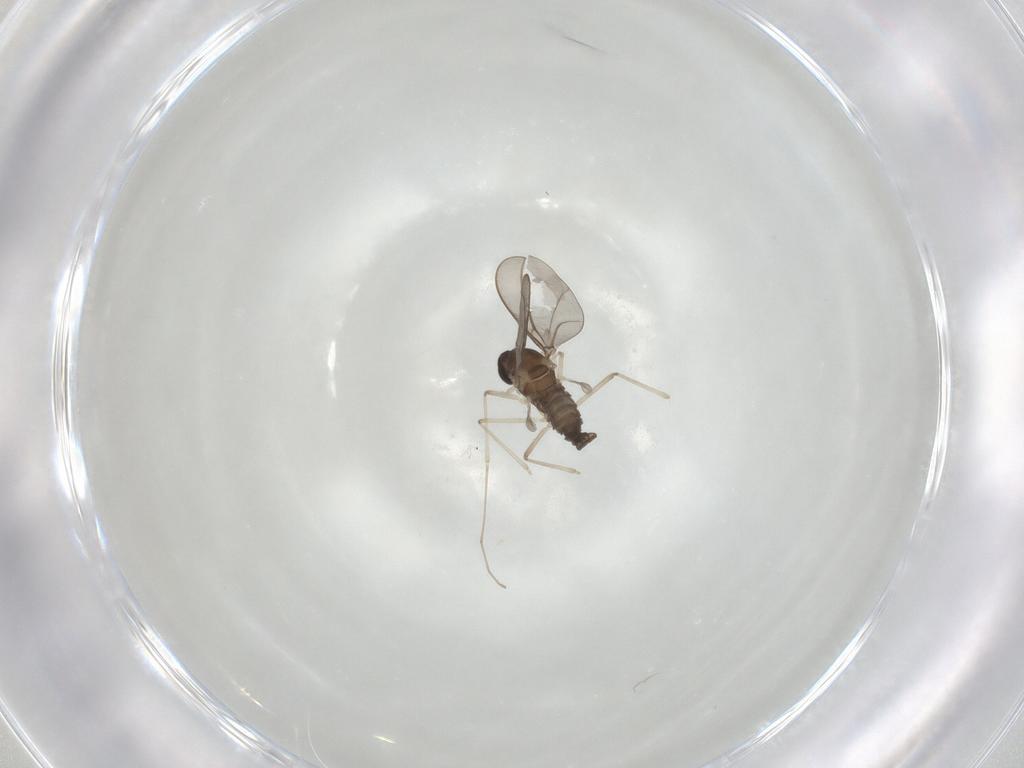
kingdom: Animalia
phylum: Arthropoda
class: Insecta
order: Diptera
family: Cecidomyiidae
